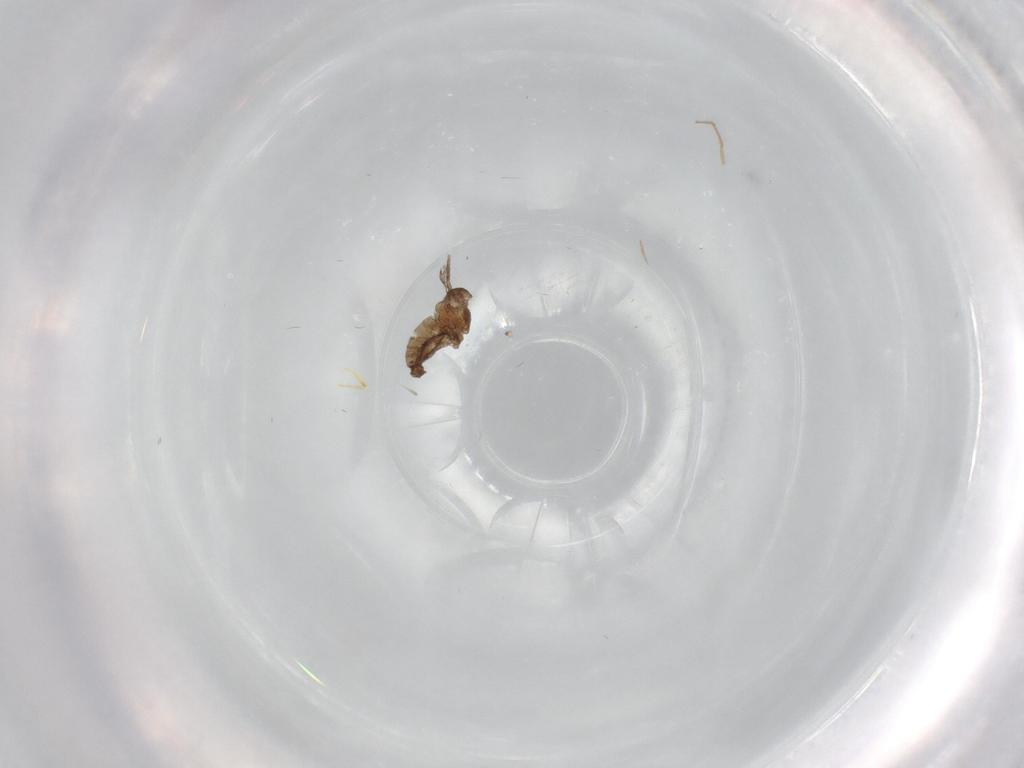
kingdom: Animalia
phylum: Arthropoda
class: Insecta
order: Diptera
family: Chironomidae
